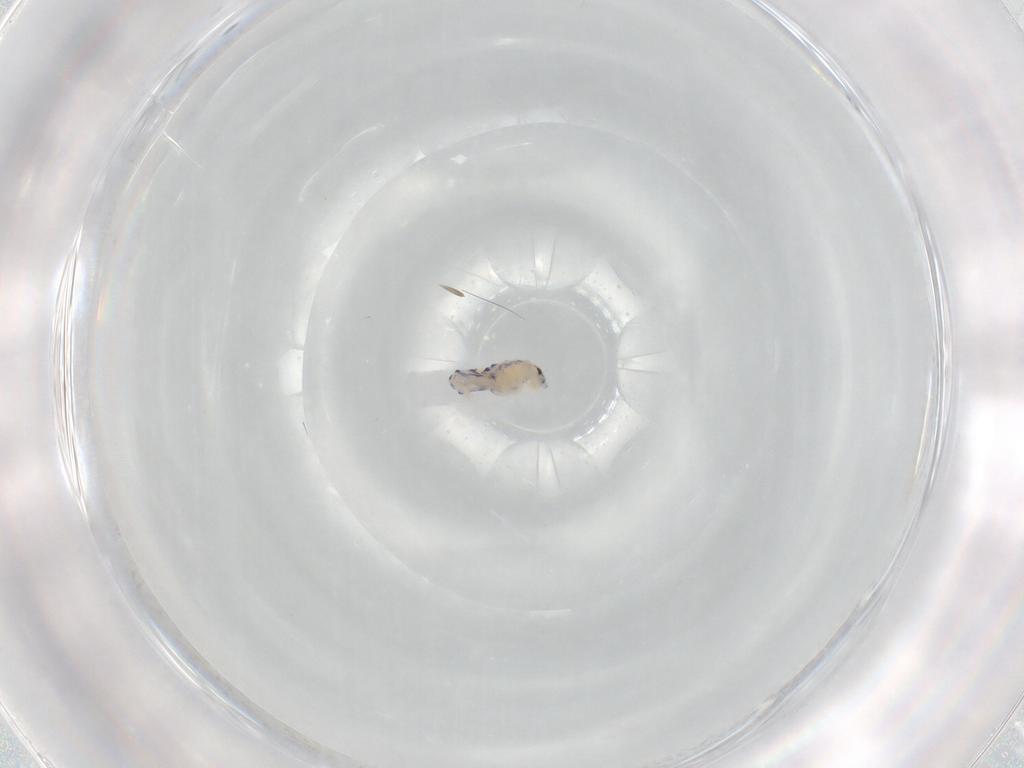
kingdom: Animalia
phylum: Arthropoda
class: Collembola
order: Entomobryomorpha
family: Entomobryidae
